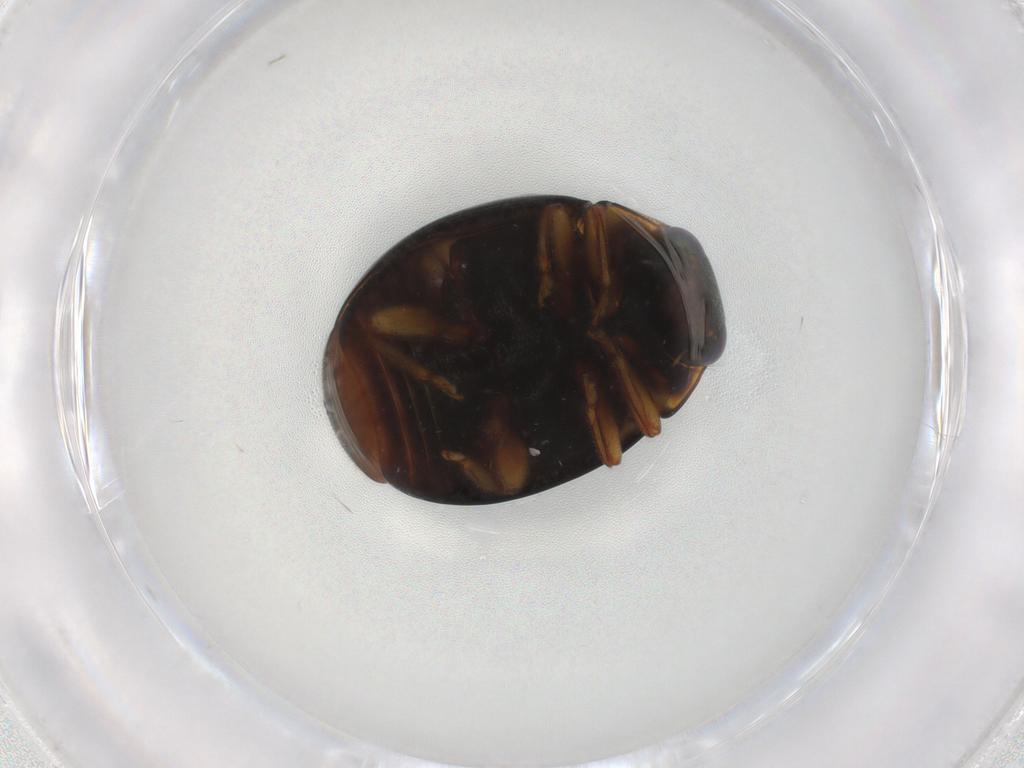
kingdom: Animalia
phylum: Arthropoda
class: Insecta
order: Coleoptera
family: Coccinellidae
